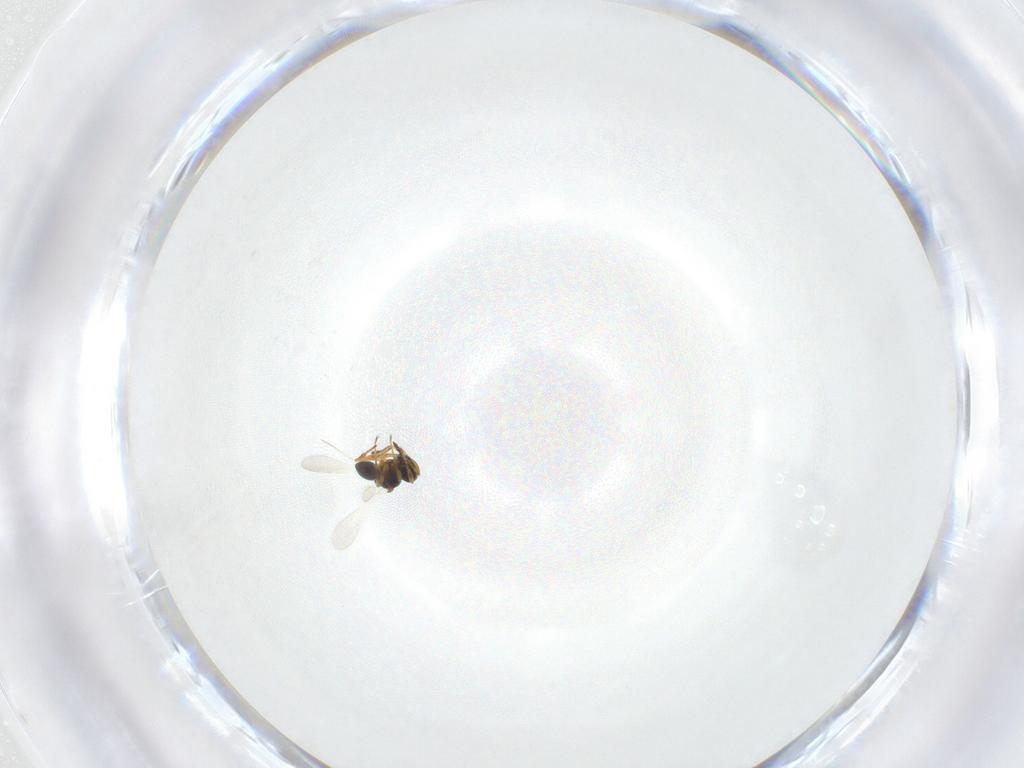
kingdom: Animalia
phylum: Arthropoda
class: Insecta
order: Hymenoptera
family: Platygastridae
